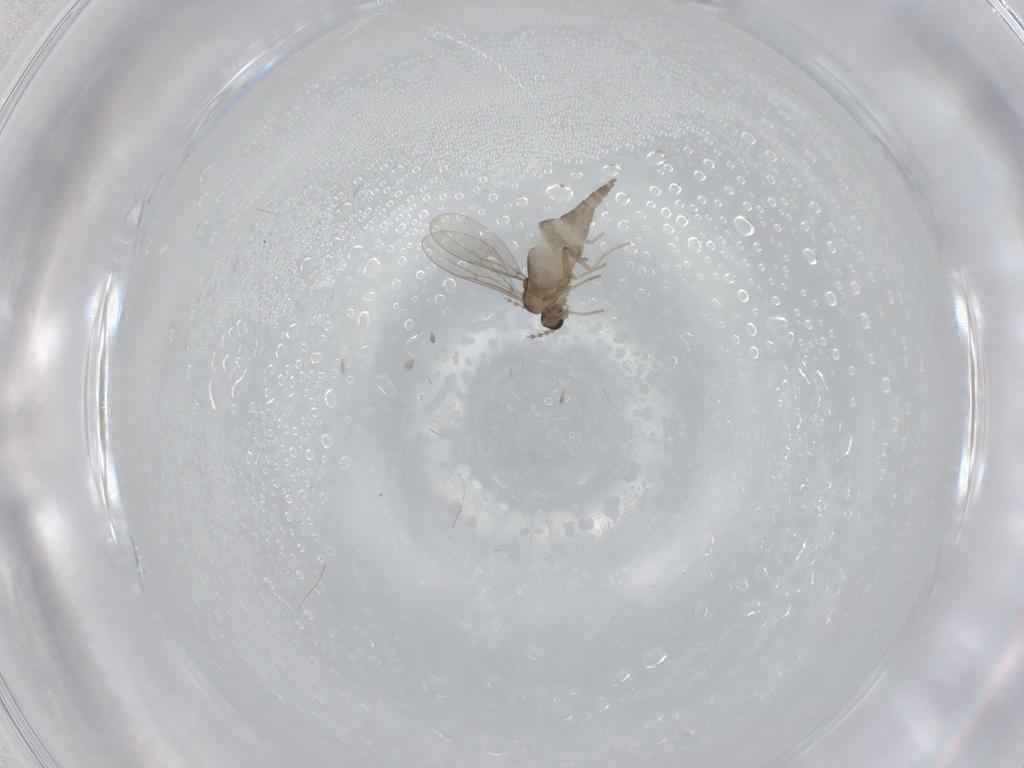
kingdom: Animalia
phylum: Arthropoda
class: Insecta
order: Diptera
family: Cecidomyiidae
